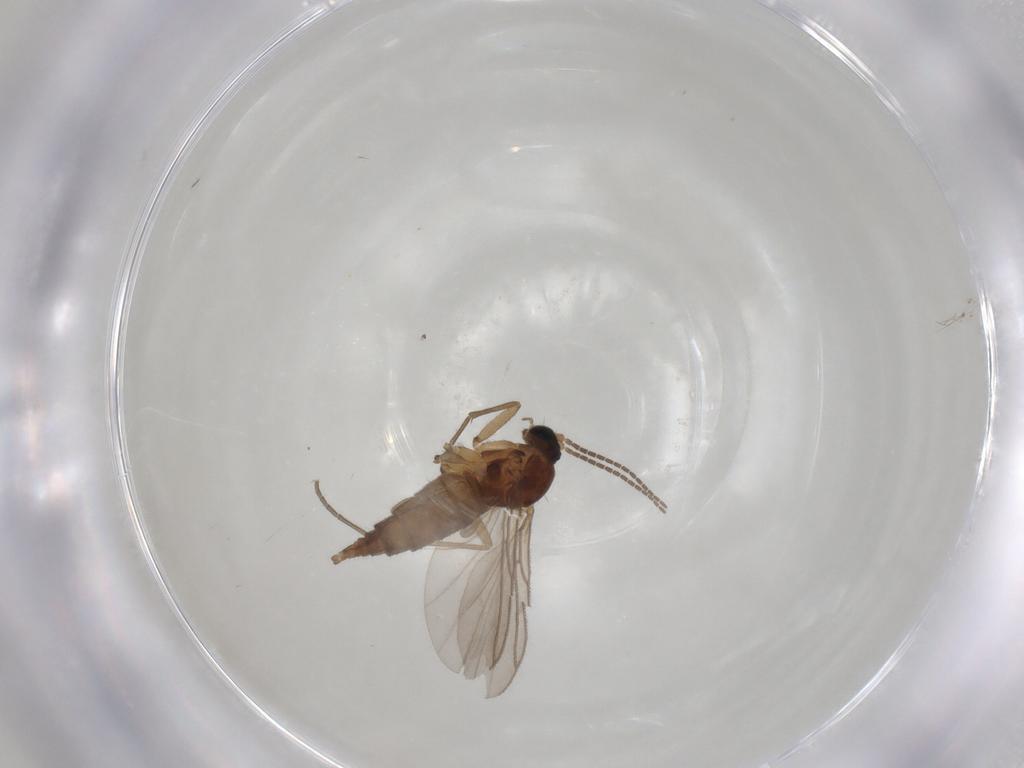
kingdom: Animalia
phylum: Arthropoda
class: Insecta
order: Diptera
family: Sciaridae
